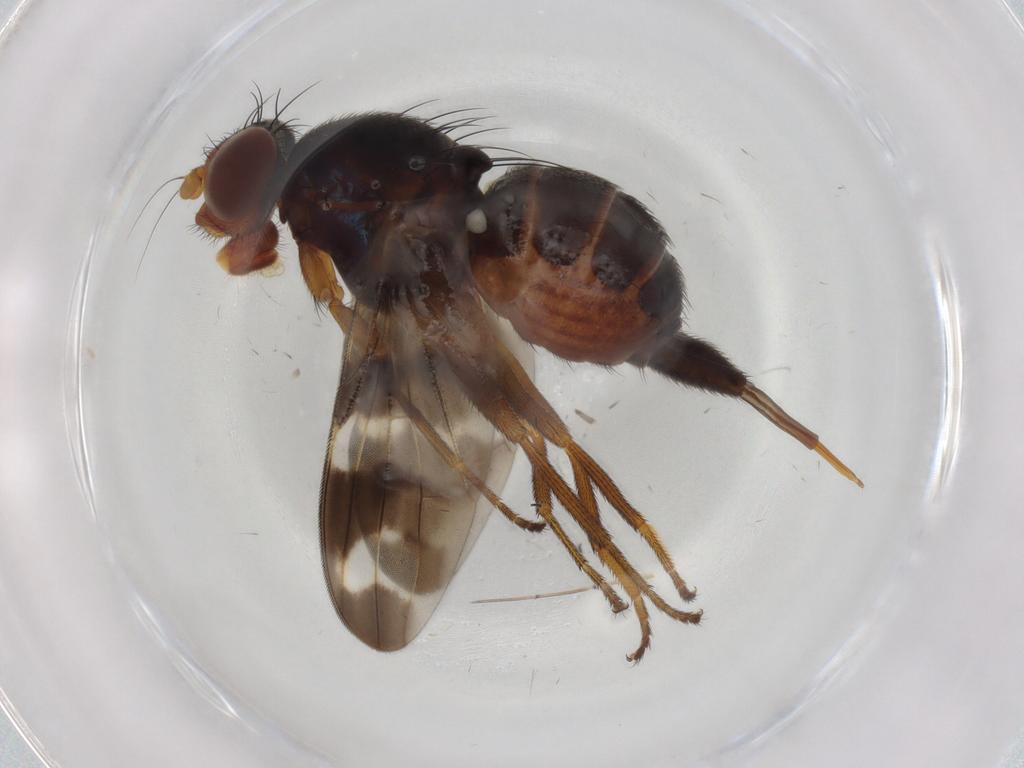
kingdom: Animalia
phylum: Arthropoda
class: Insecta
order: Diptera
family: Ulidiidae
